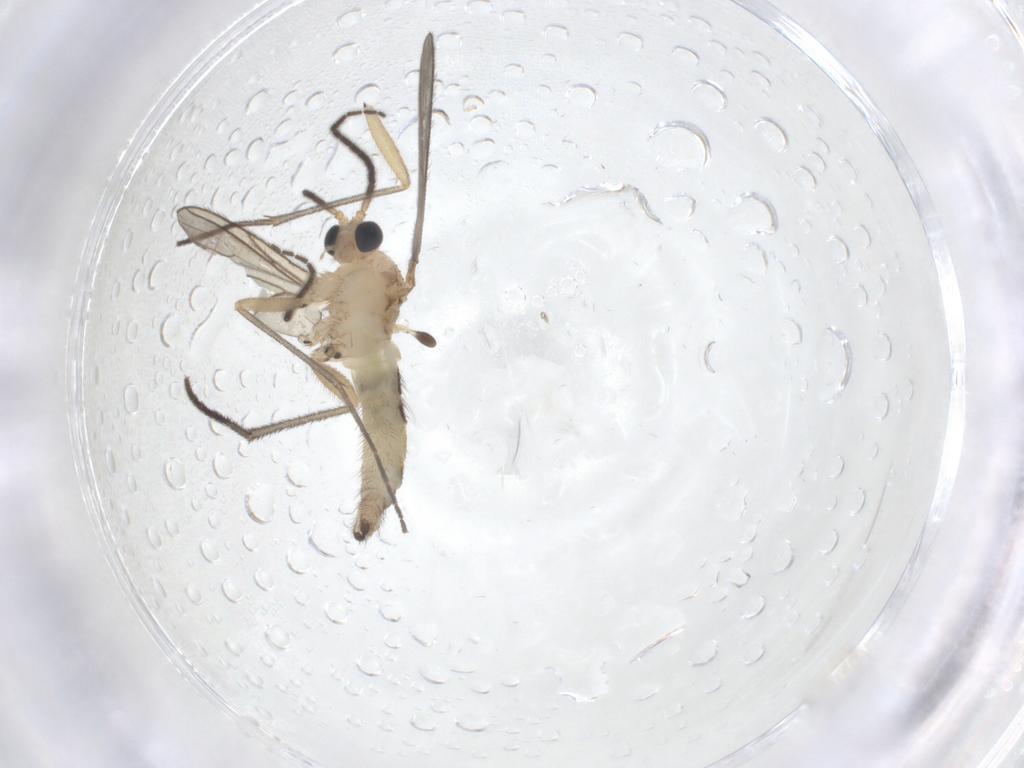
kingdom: Animalia
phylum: Arthropoda
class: Insecta
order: Diptera
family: Sciaridae
